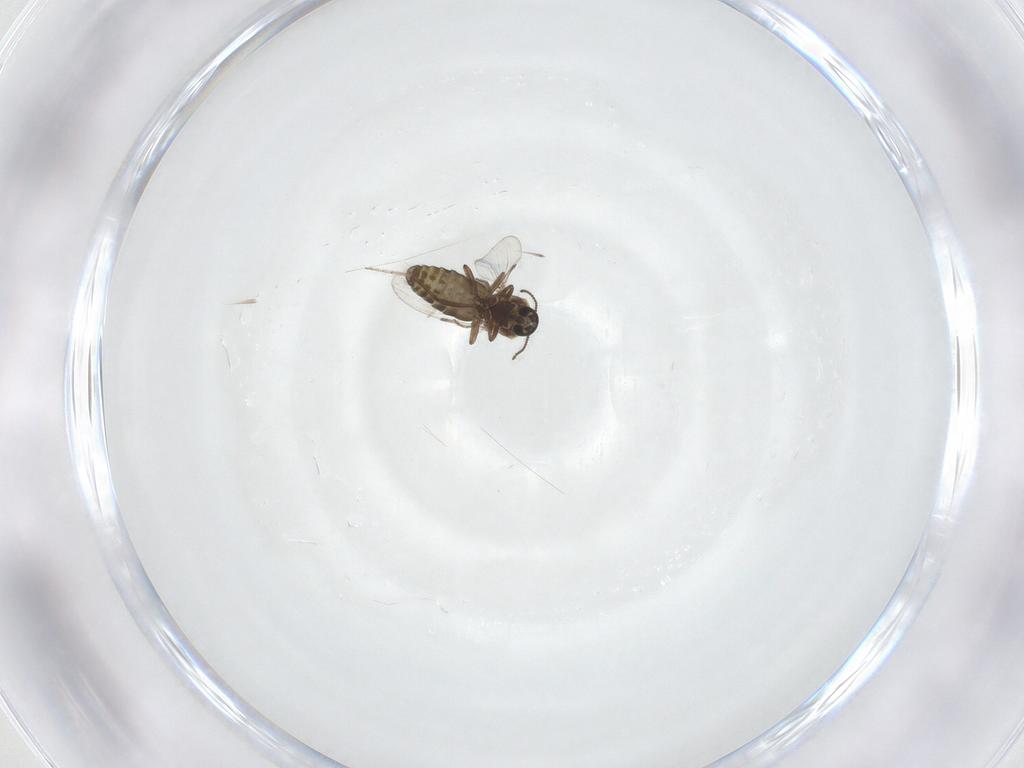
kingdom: Animalia
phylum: Arthropoda
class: Insecta
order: Diptera
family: Ceratopogonidae
